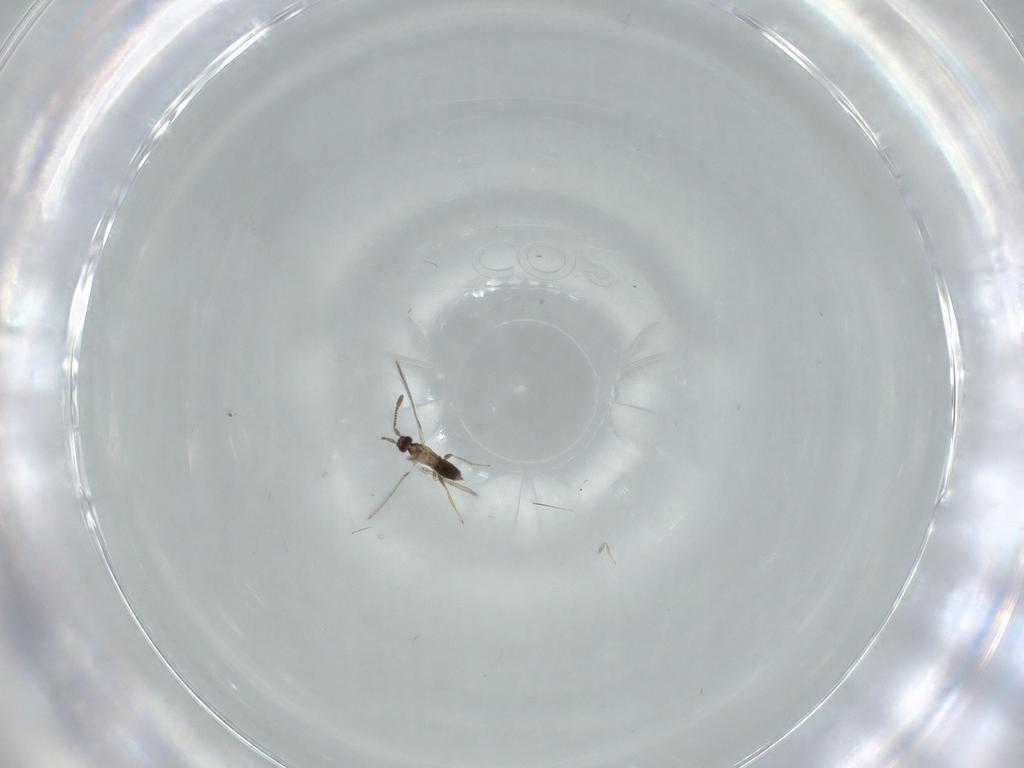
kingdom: Animalia
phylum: Arthropoda
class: Insecta
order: Hymenoptera
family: Mymaridae
